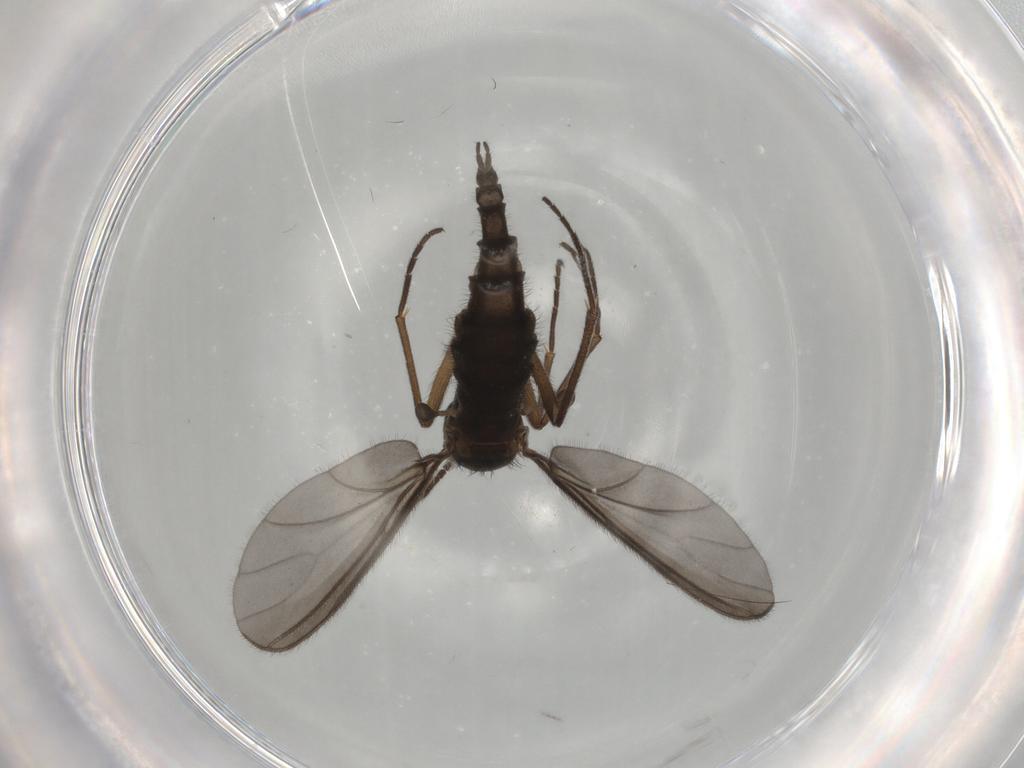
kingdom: Animalia
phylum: Arthropoda
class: Insecta
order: Diptera
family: Sciaridae
